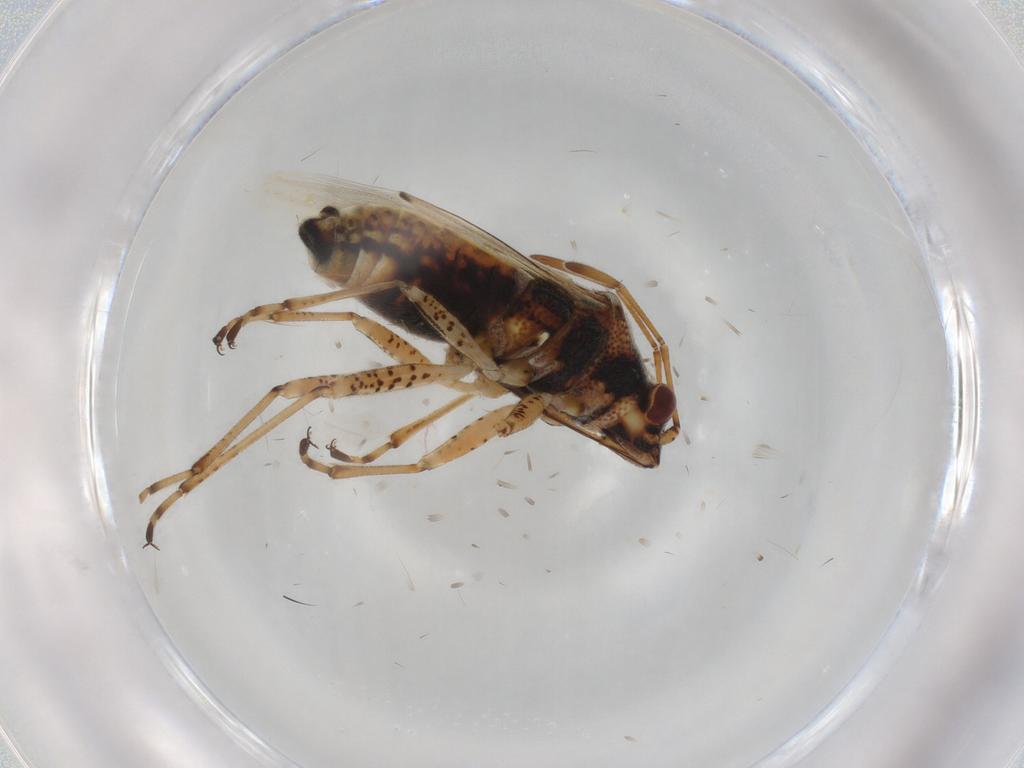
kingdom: Animalia
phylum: Arthropoda
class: Insecta
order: Hemiptera
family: Lygaeidae
